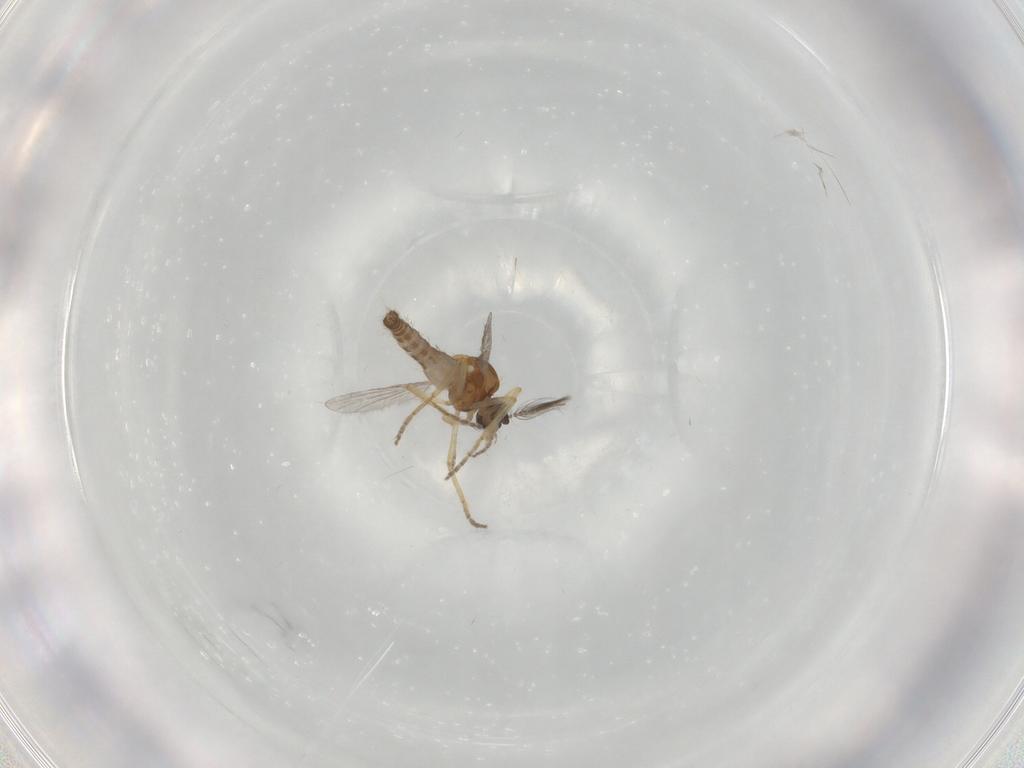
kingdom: Animalia
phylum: Arthropoda
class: Insecta
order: Diptera
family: Ceratopogonidae
